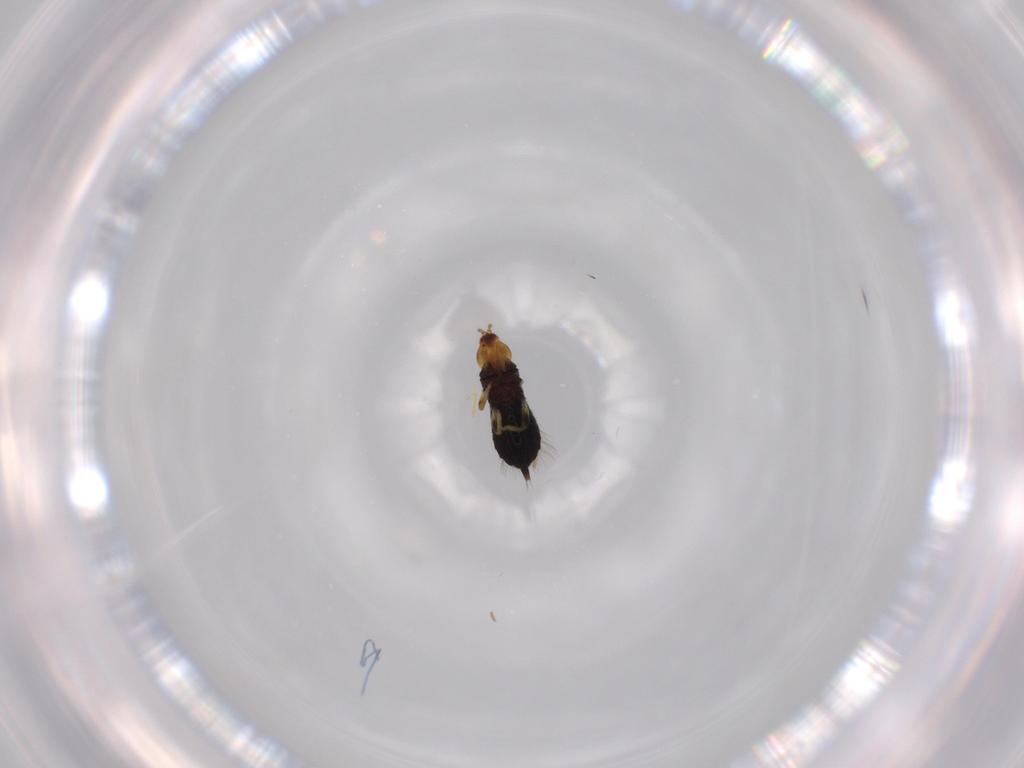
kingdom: Animalia
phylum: Arthropoda
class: Insecta
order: Thysanoptera
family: Phlaeothripidae
